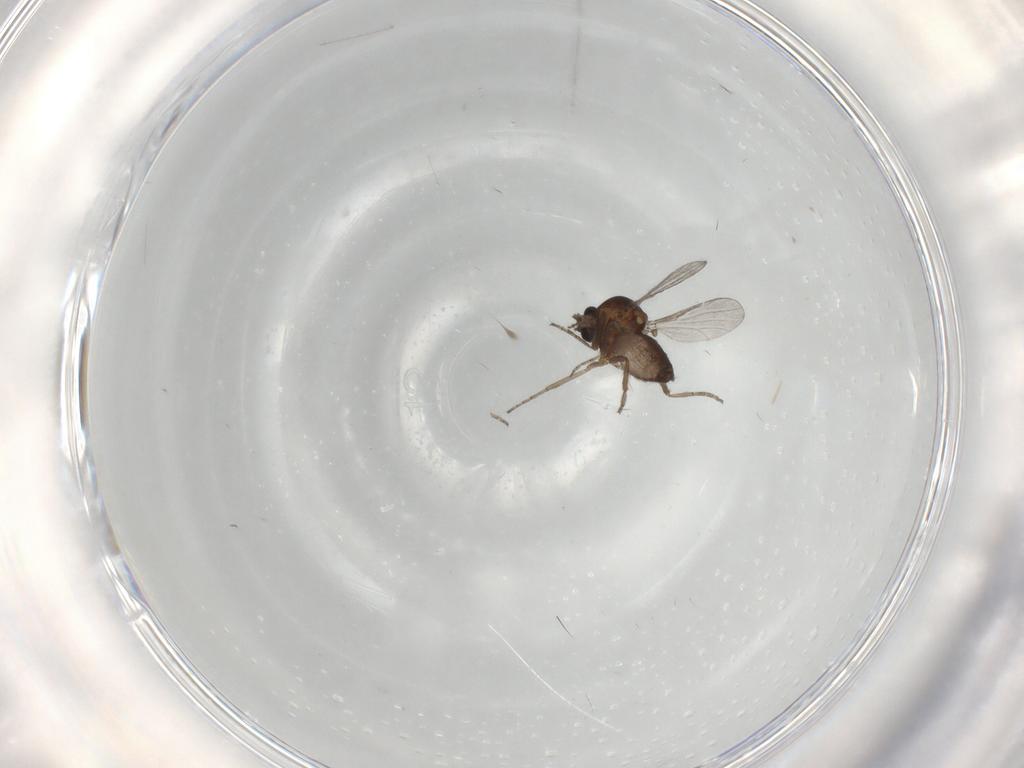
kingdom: Animalia
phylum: Arthropoda
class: Insecta
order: Diptera
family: Cecidomyiidae
